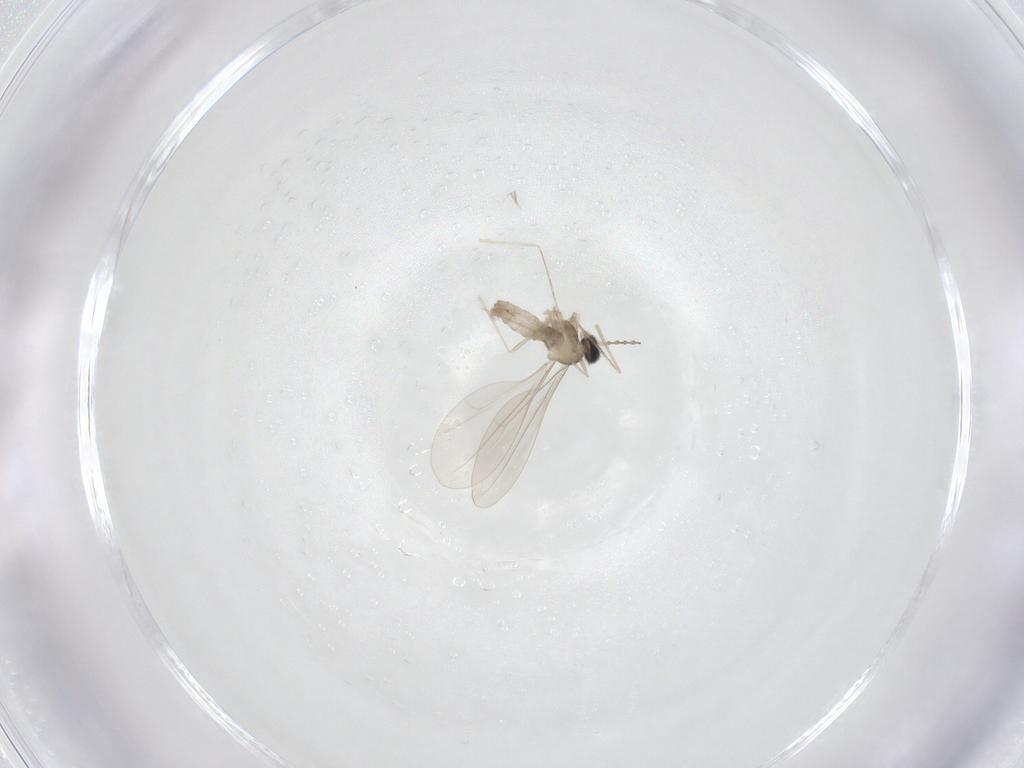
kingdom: Animalia
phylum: Arthropoda
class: Insecta
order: Diptera
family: Cecidomyiidae
